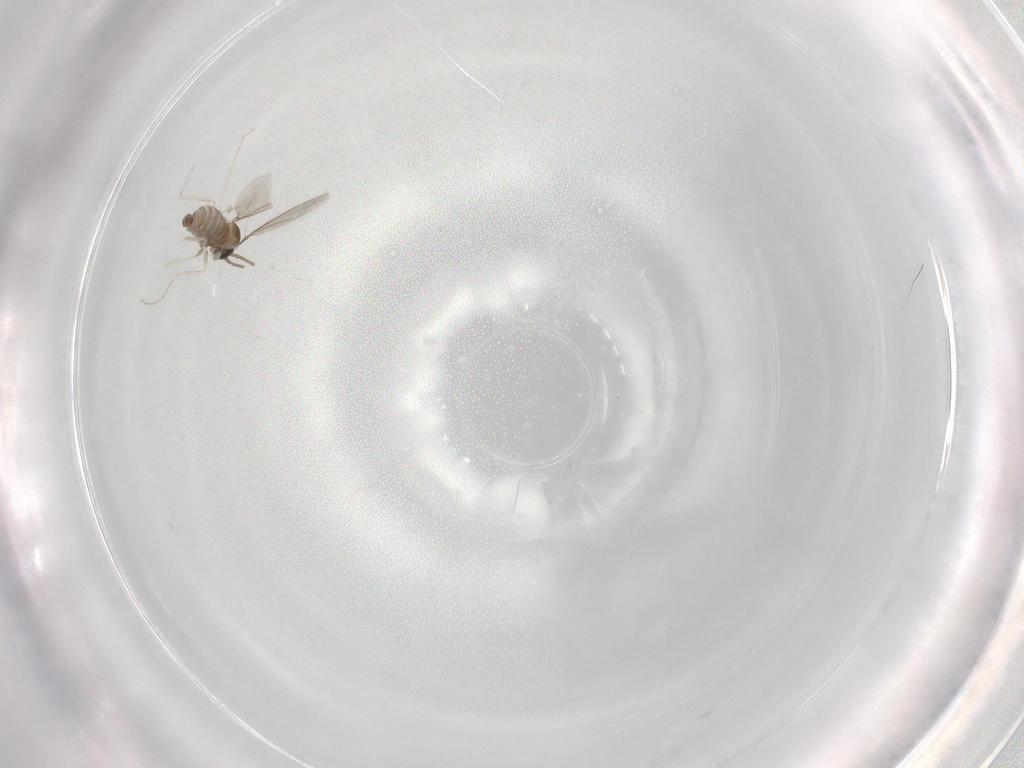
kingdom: Animalia
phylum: Arthropoda
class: Insecta
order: Diptera
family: Cecidomyiidae
